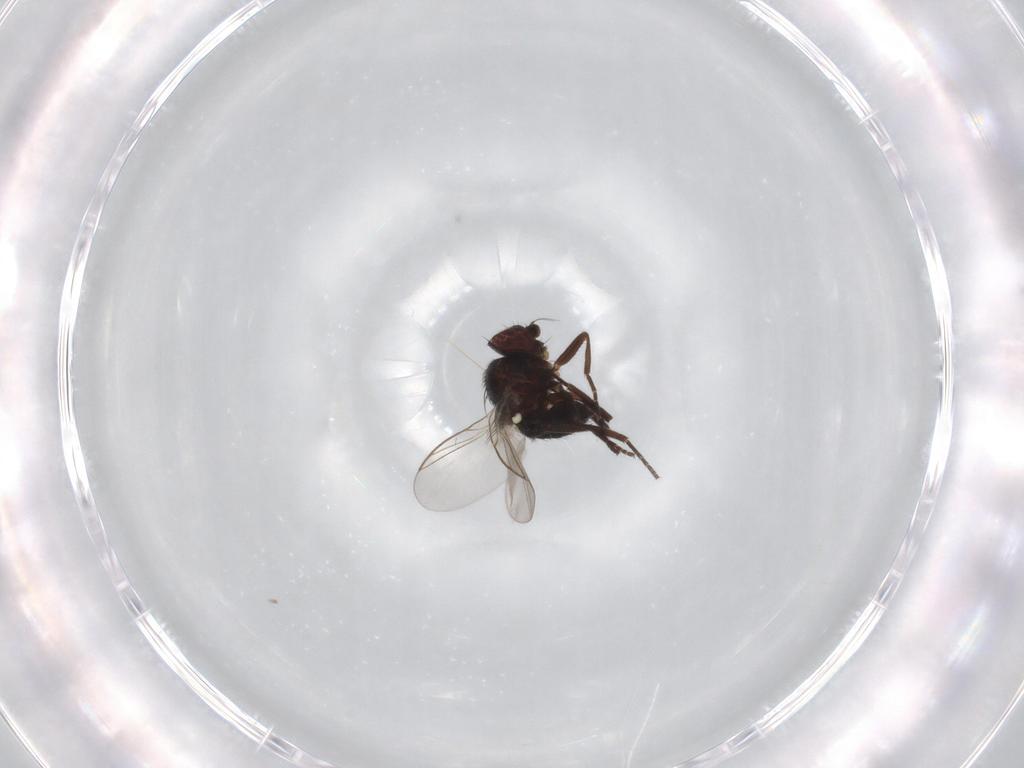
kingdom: Animalia
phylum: Arthropoda
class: Insecta
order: Diptera
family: Muscidae
